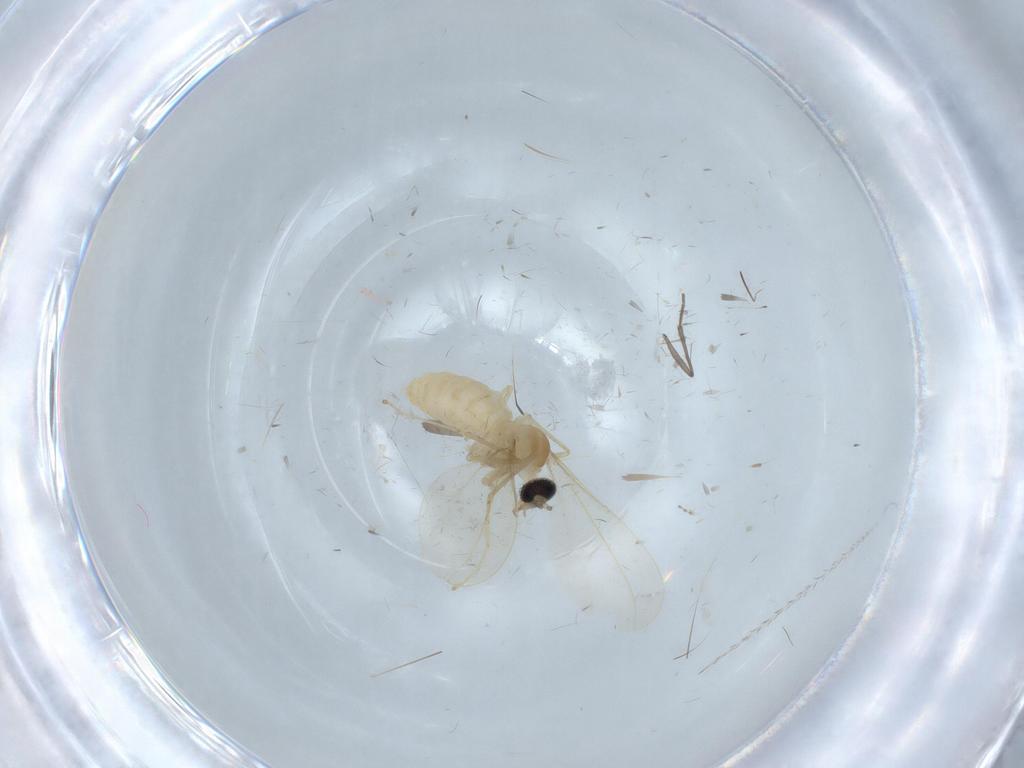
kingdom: Animalia
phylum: Arthropoda
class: Insecta
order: Diptera
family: Cecidomyiidae
